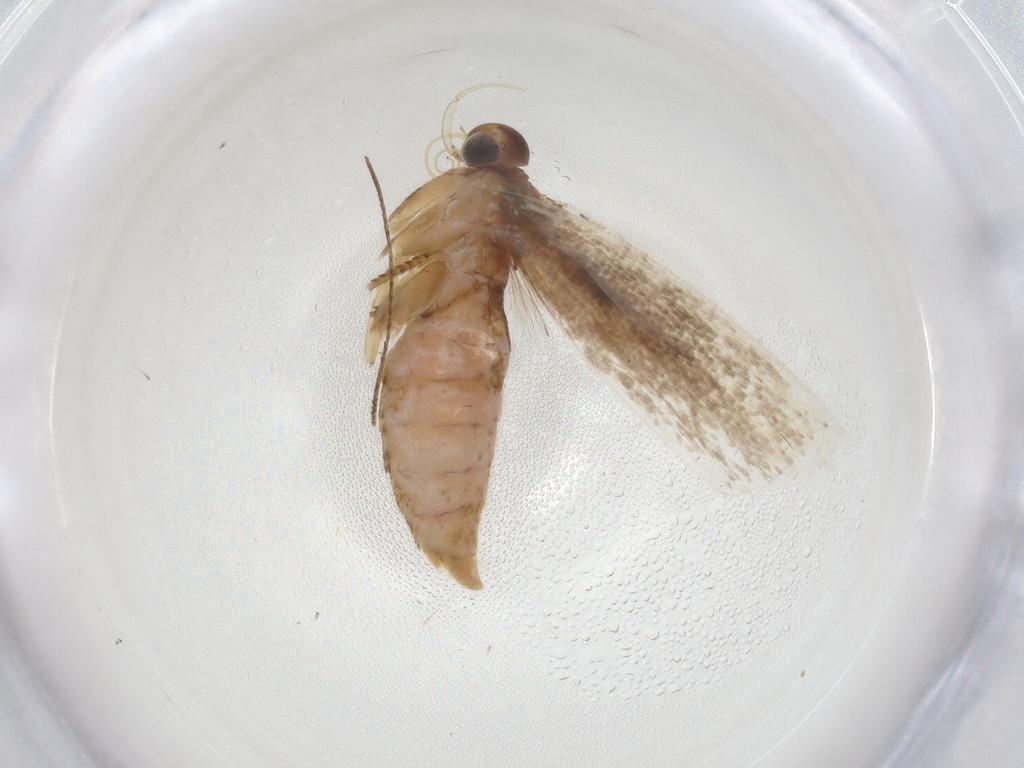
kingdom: Animalia
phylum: Arthropoda
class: Insecta
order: Lepidoptera
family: Gelechiidae
